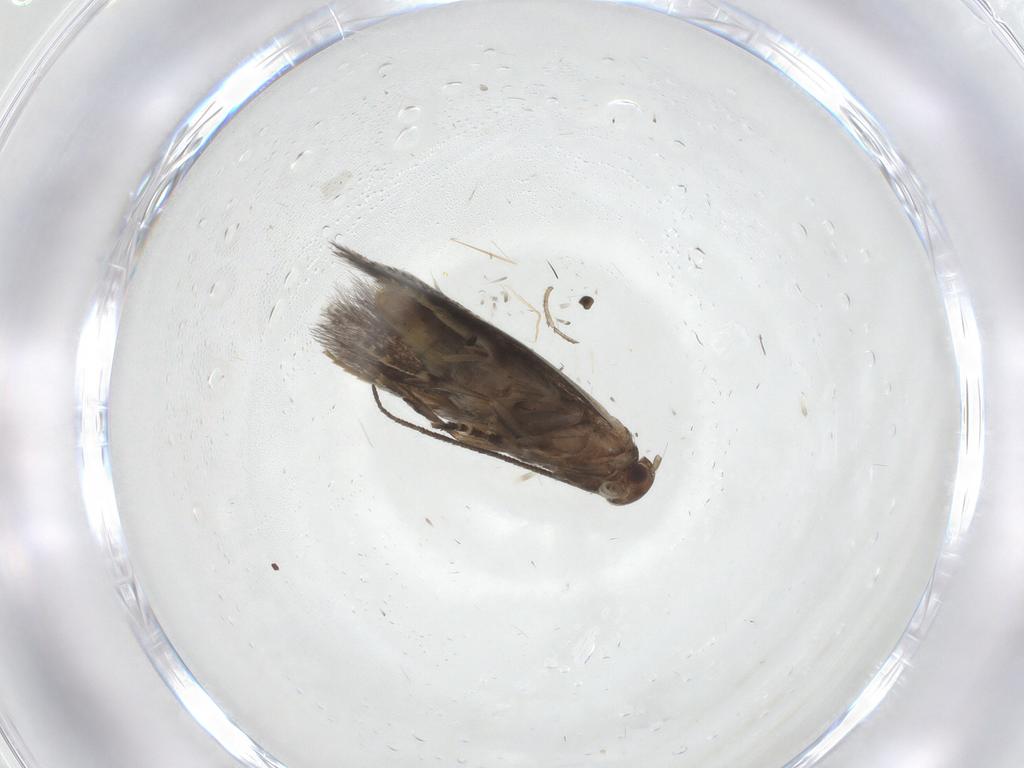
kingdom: Animalia
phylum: Arthropoda
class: Insecta
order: Lepidoptera
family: Elachistidae
